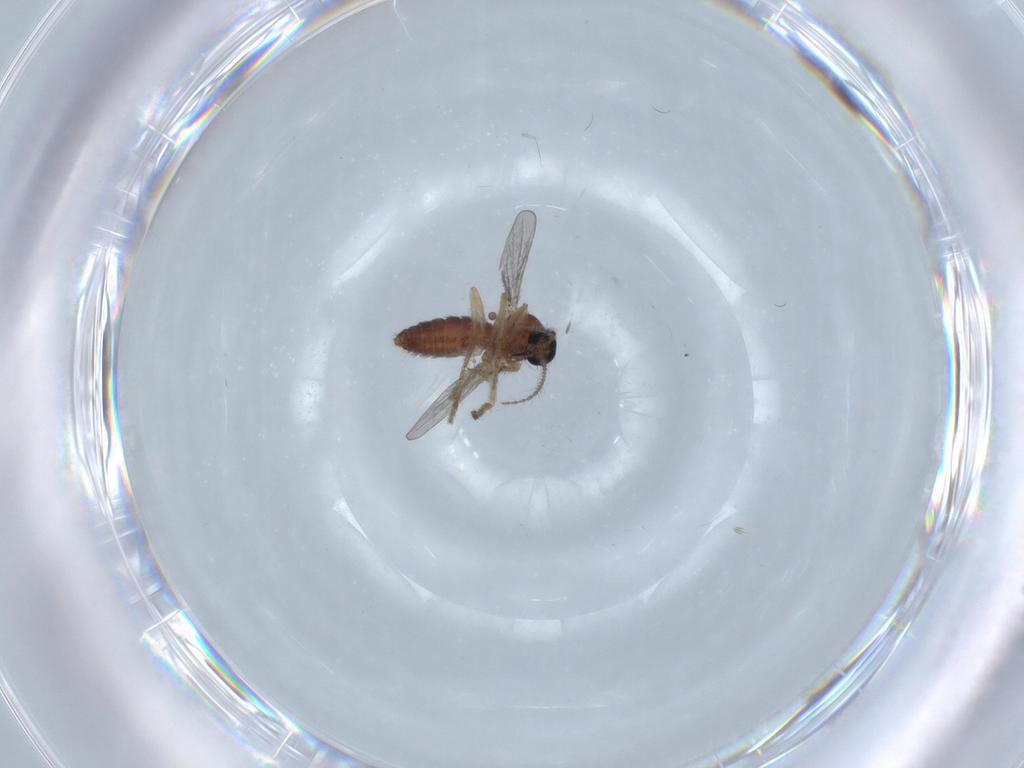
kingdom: Animalia
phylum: Arthropoda
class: Insecta
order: Diptera
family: Ceratopogonidae
